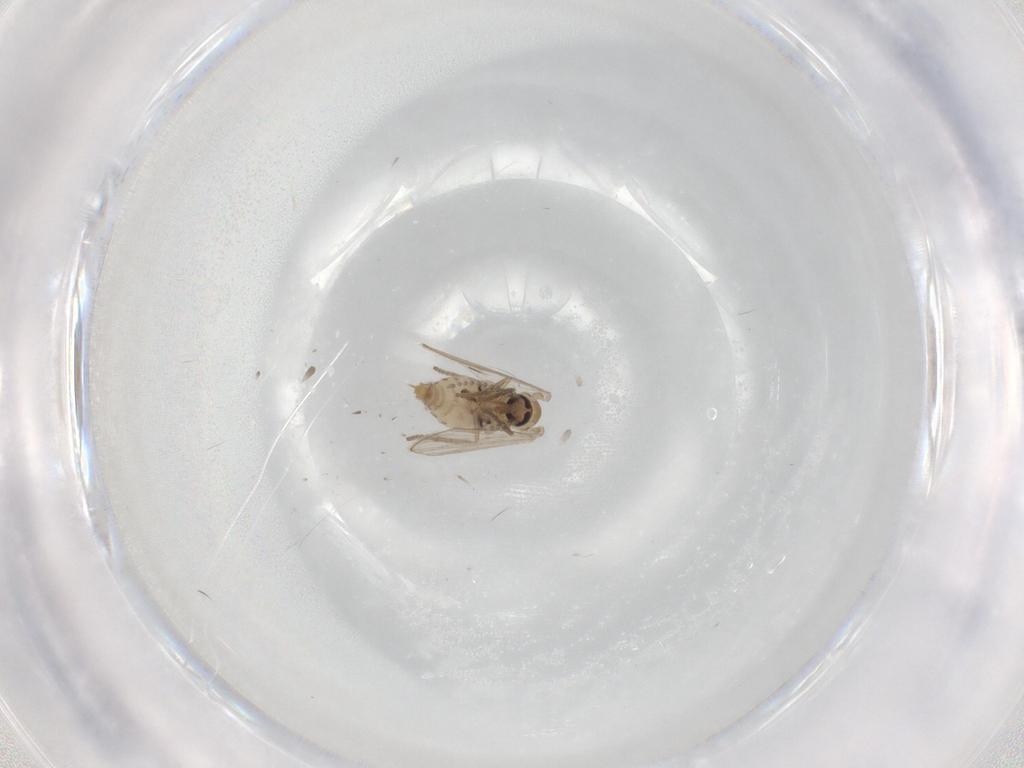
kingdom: Animalia
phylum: Arthropoda
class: Insecta
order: Diptera
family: Psychodidae
